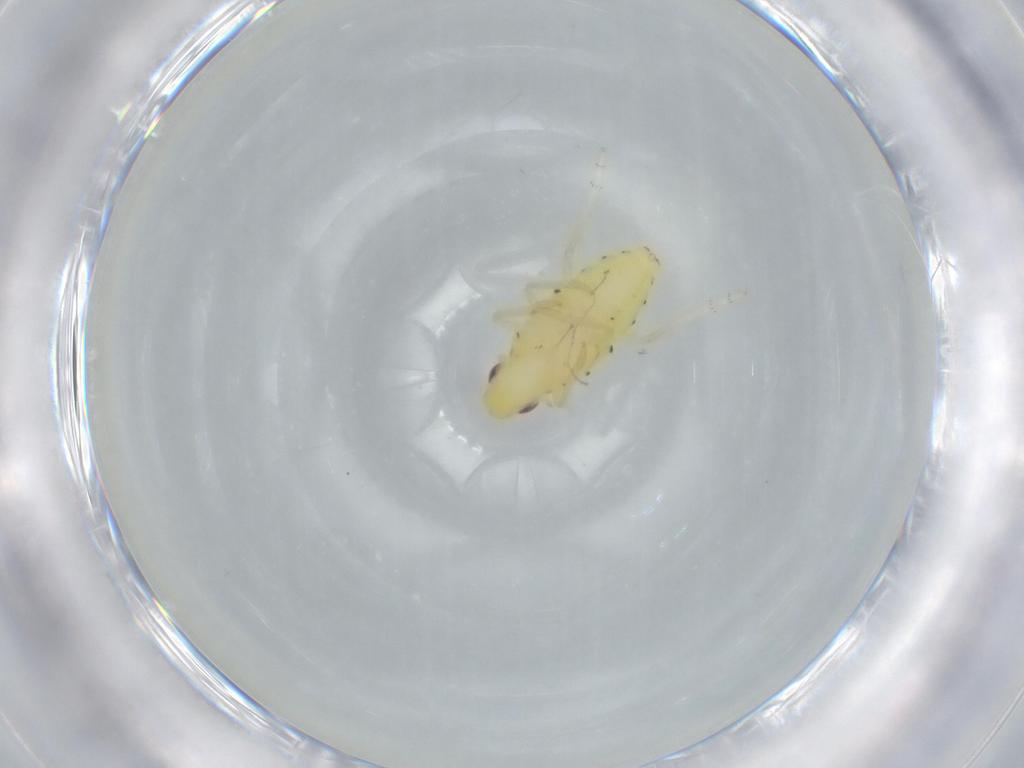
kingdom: Animalia
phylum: Arthropoda
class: Insecta
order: Hemiptera
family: Tropiduchidae
